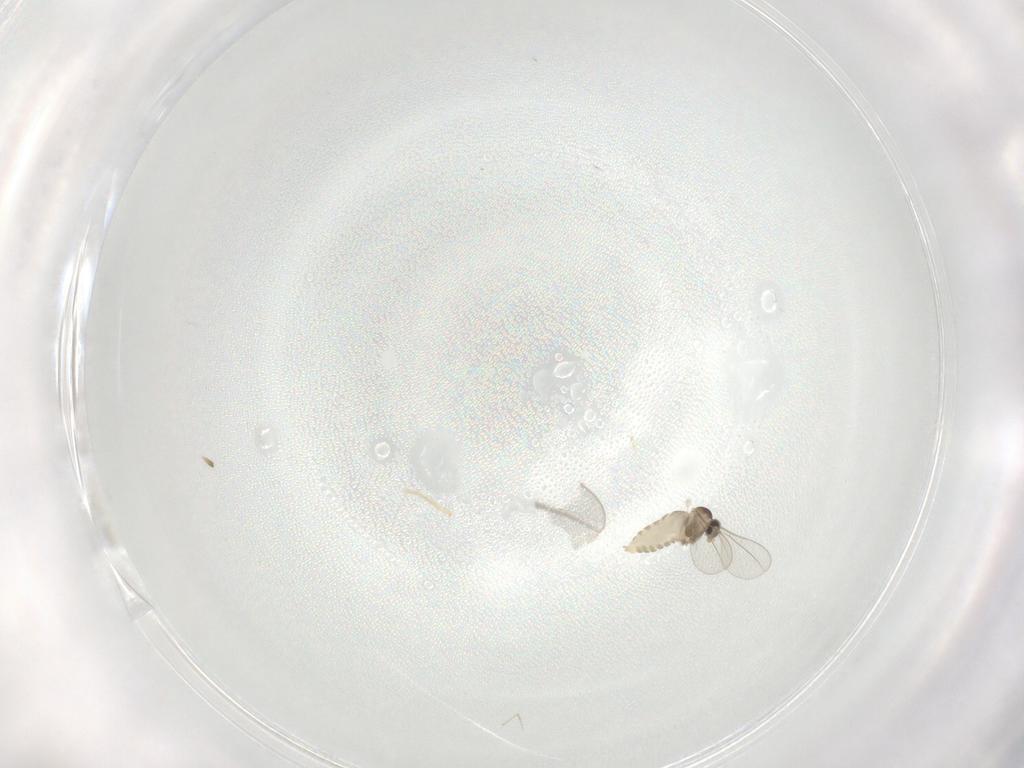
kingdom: Animalia
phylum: Arthropoda
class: Insecta
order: Diptera
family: Cecidomyiidae
